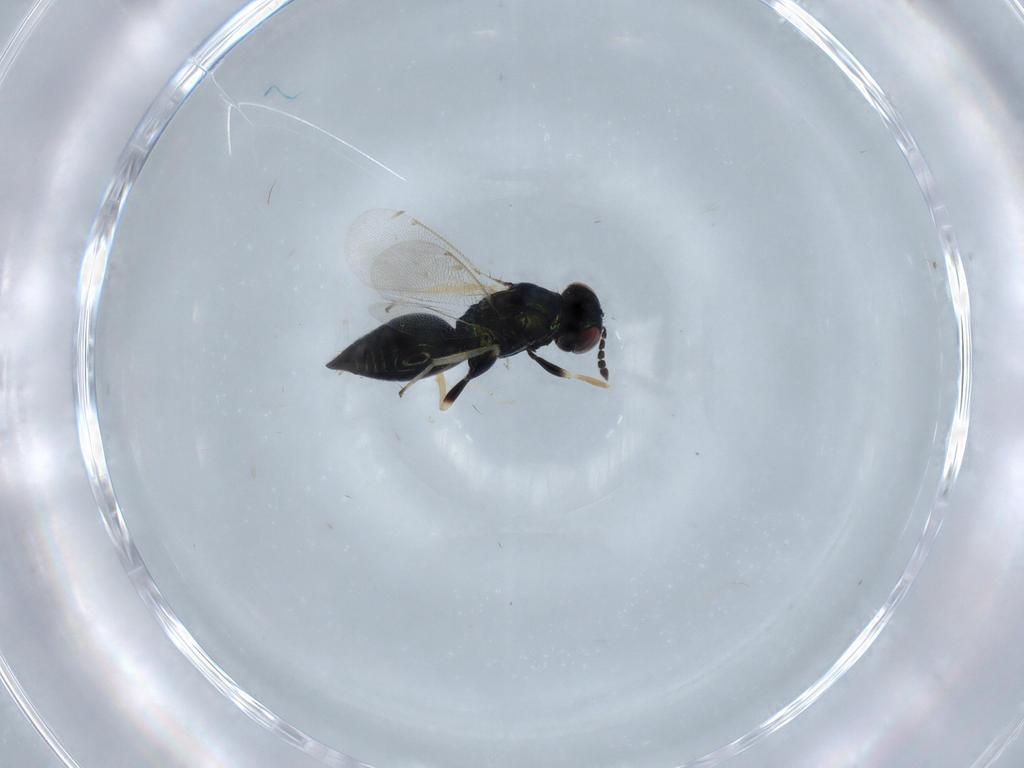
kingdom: Animalia
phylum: Arthropoda
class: Insecta
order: Hymenoptera
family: Eulophidae
